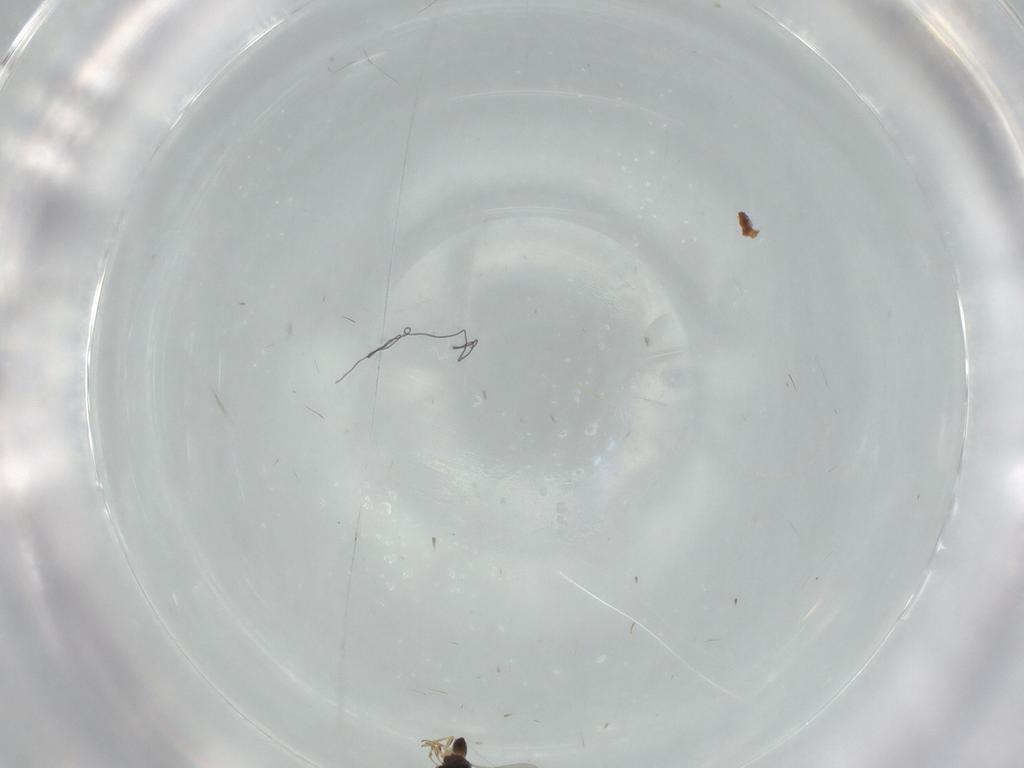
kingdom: Animalia
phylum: Arthropoda
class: Insecta
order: Hymenoptera
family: Scelionidae
